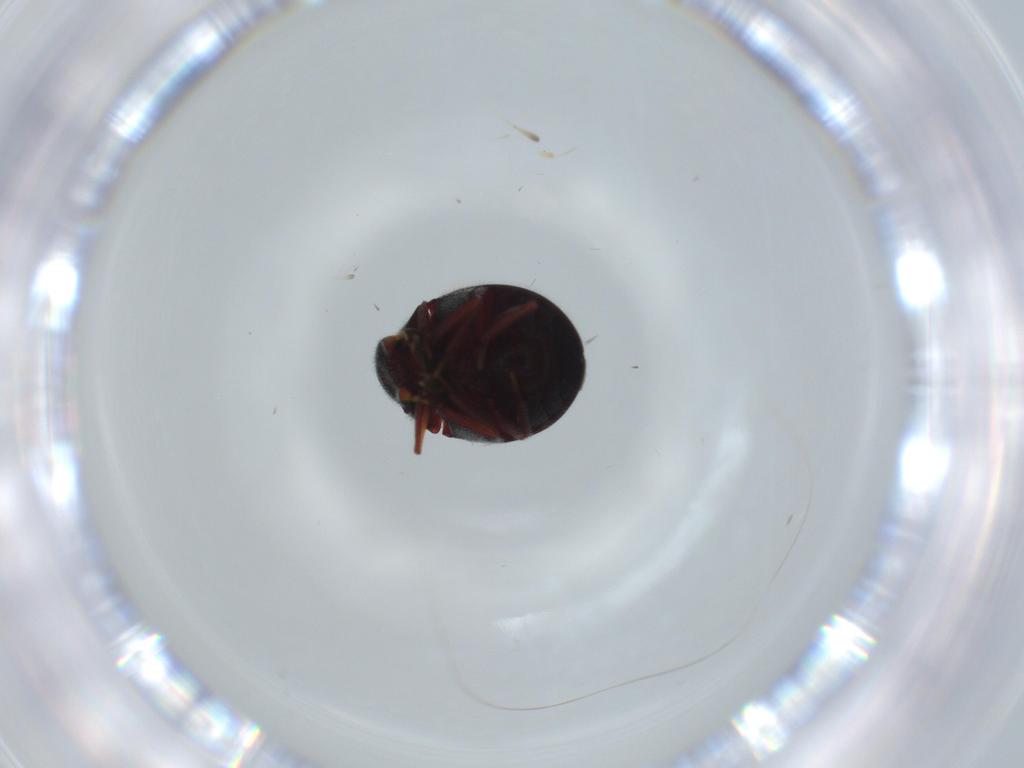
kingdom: Animalia
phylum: Arthropoda
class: Insecta
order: Diptera
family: Phoridae
